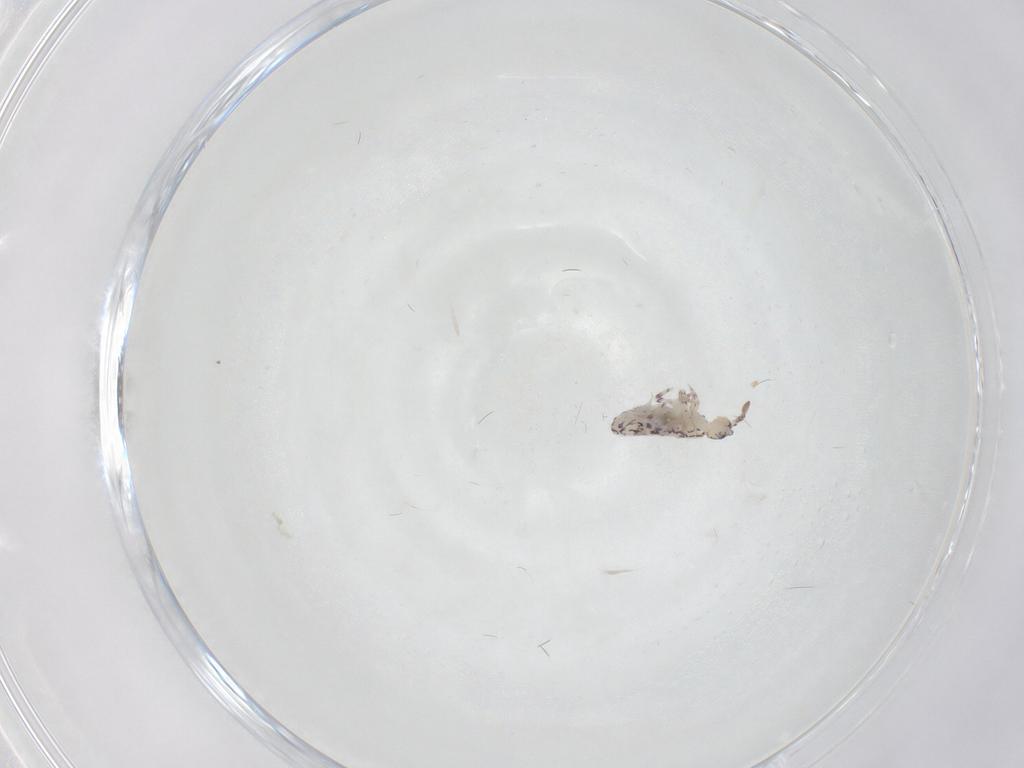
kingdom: Animalia
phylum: Arthropoda
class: Collembola
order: Entomobryomorpha
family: Entomobryidae
